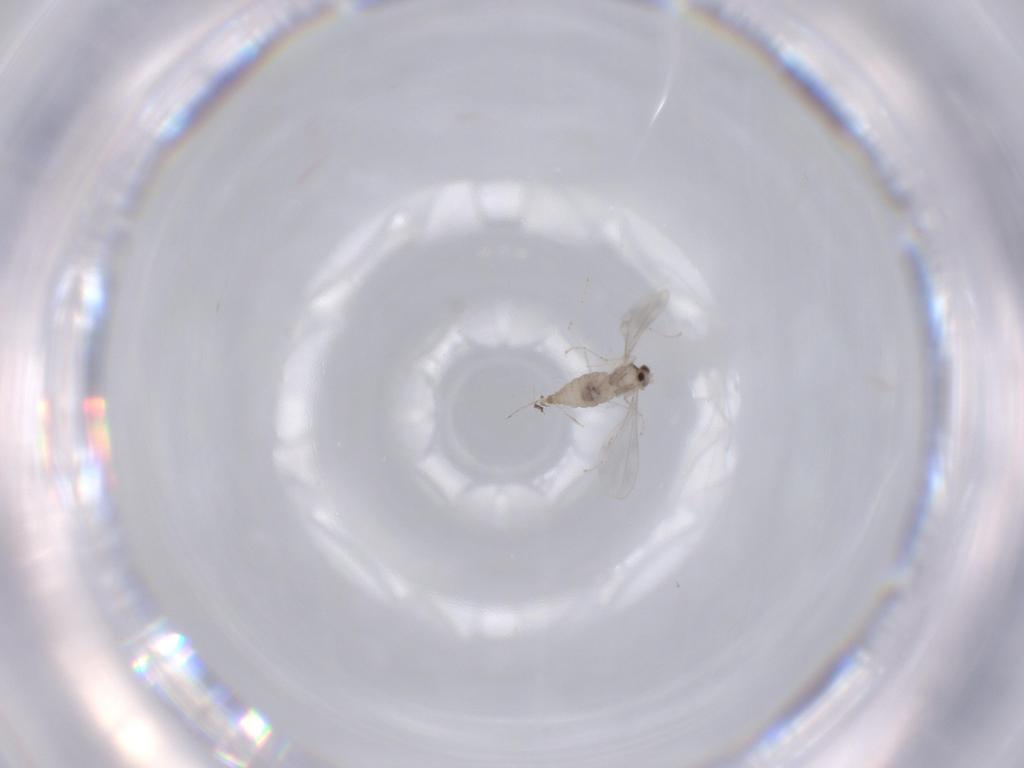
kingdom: Animalia
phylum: Arthropoda
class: Insecta
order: Diptera
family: Cecidomyiidae
